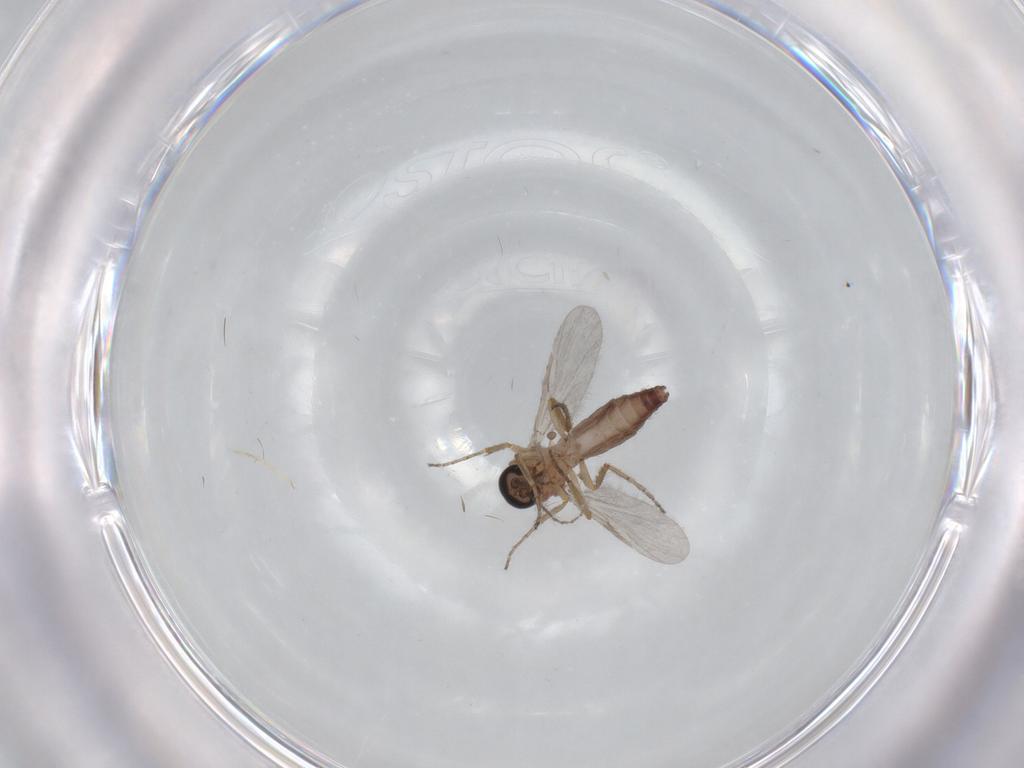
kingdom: Animalia
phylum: Arthropoda
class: Insecta
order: Diptera
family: Ceratopogonidae
